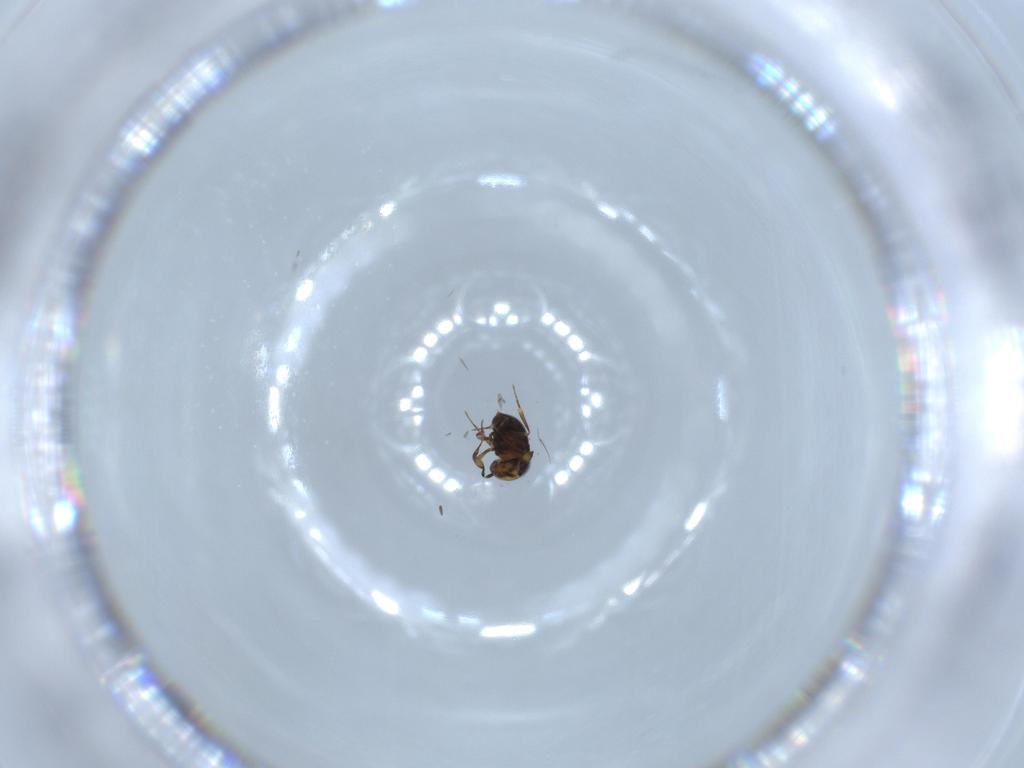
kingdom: Animalia
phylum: Arthropoda
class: Insecta
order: Hymenoptera
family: Scelionidae
